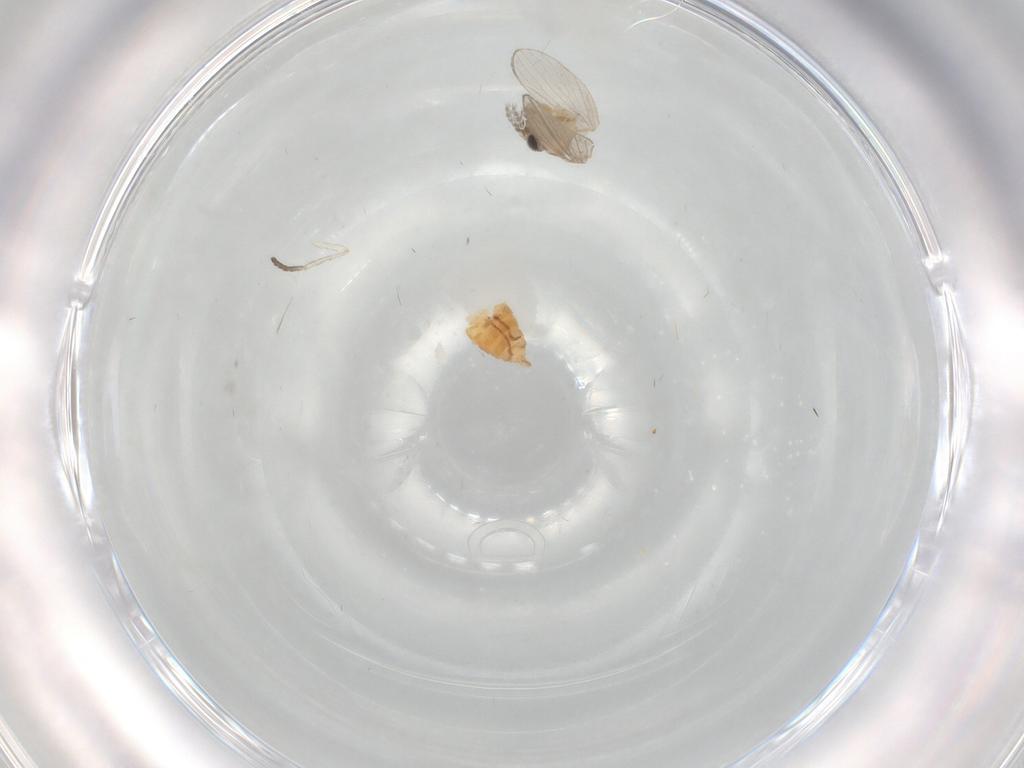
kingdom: Animalia
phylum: Arthropoda
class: Insecta
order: Diptera
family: Psychodidae
